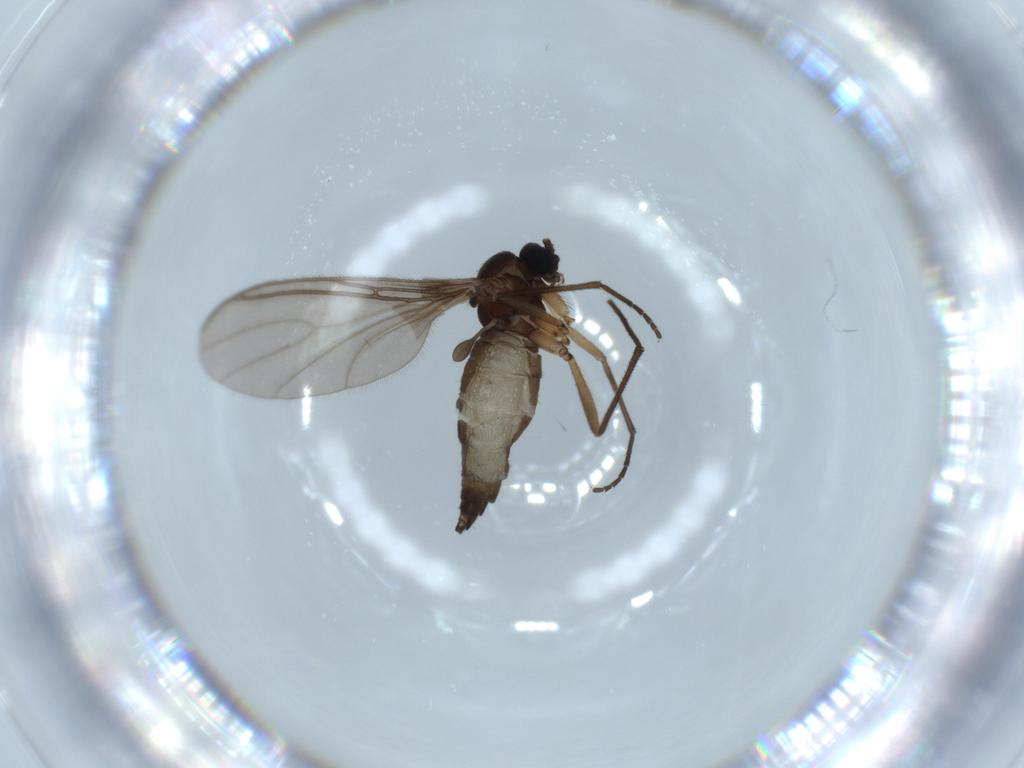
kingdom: Animalia
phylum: Arthropoda
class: Insecta
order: Diptera
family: Sciaridae
